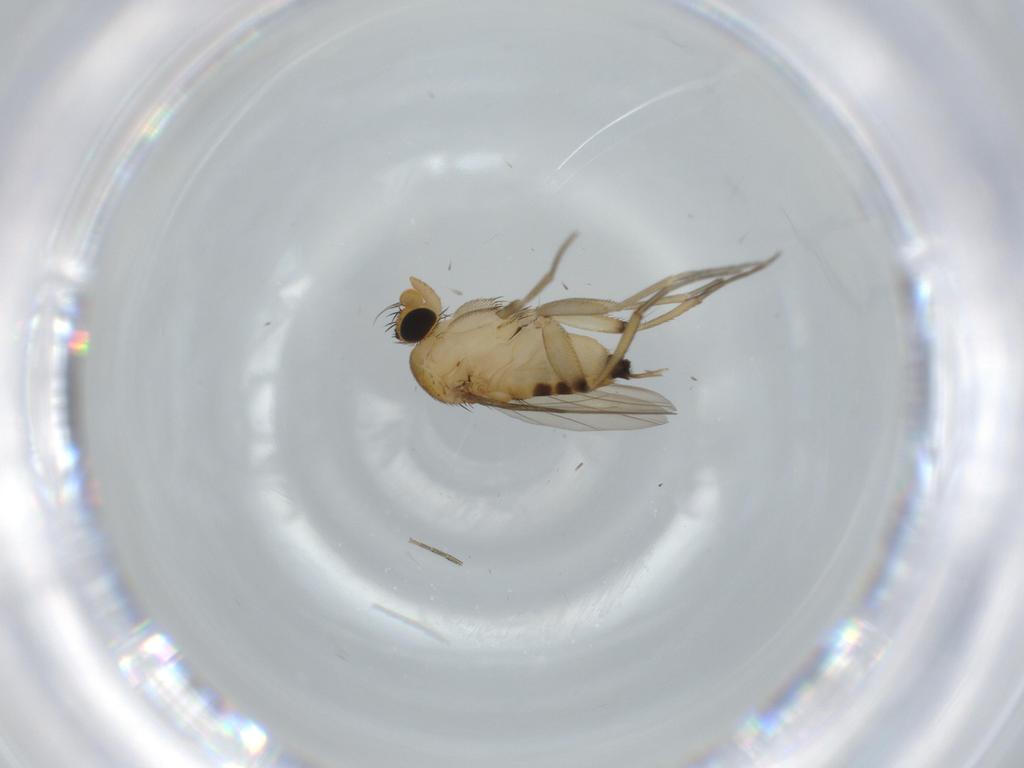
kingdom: Animalia
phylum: Arthropoda
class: Insecta
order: Diptera
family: Phoridae
